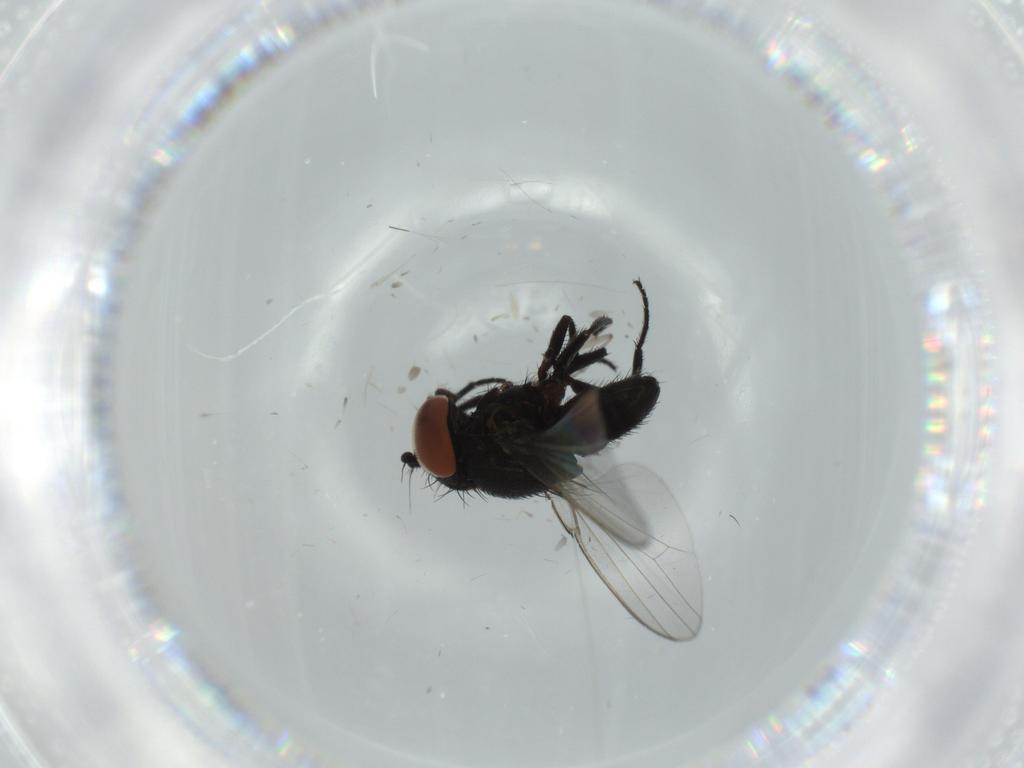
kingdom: Animalia
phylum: Arthropoda
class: Insecta
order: Diptera
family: Milichiidae
